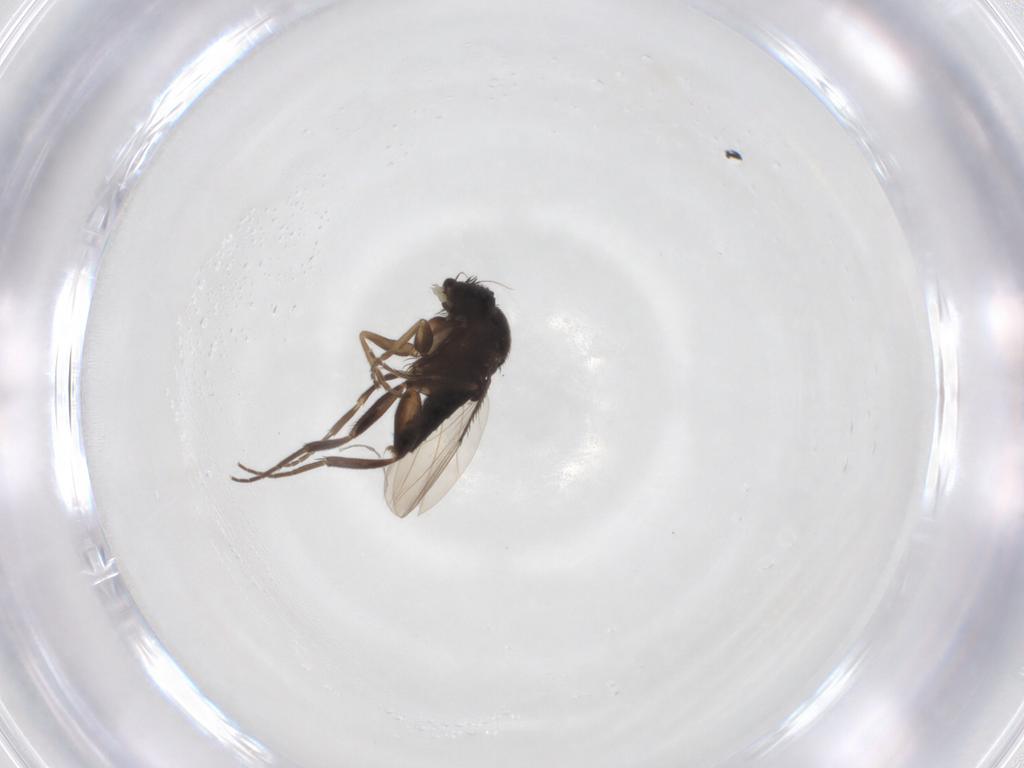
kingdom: Animalia
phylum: Arthropoda
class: Insecta
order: Diptera
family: Phoridae
